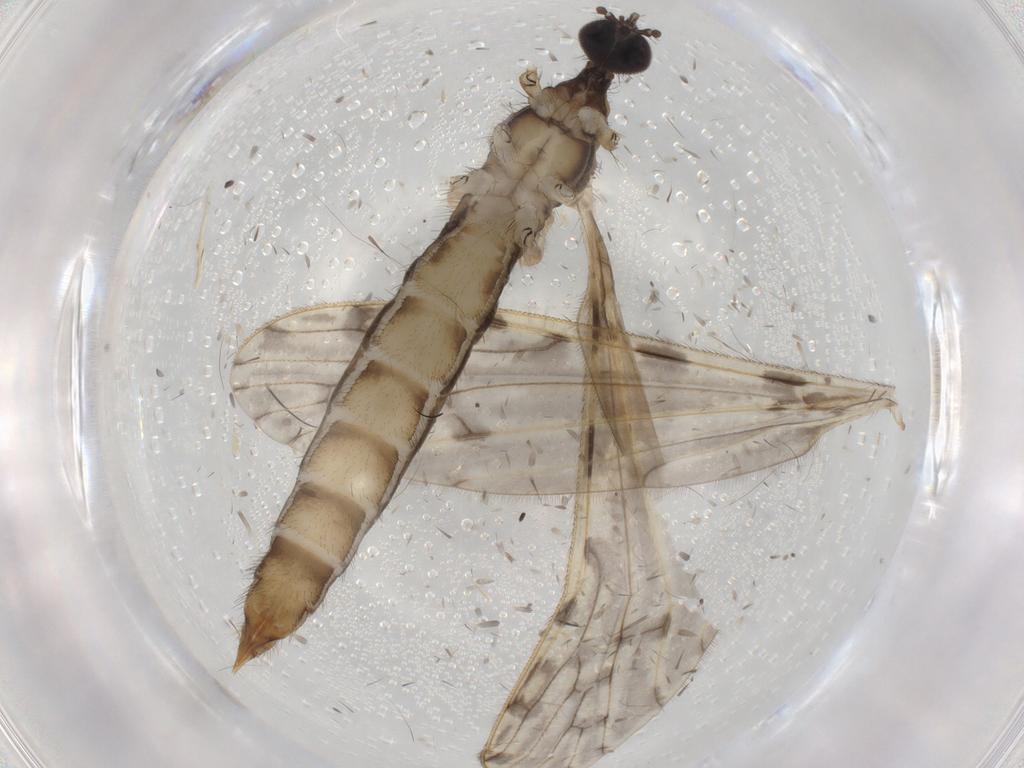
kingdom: Animalia
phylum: Arthropoda
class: Insecta
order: Diptera
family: Limoniidae
